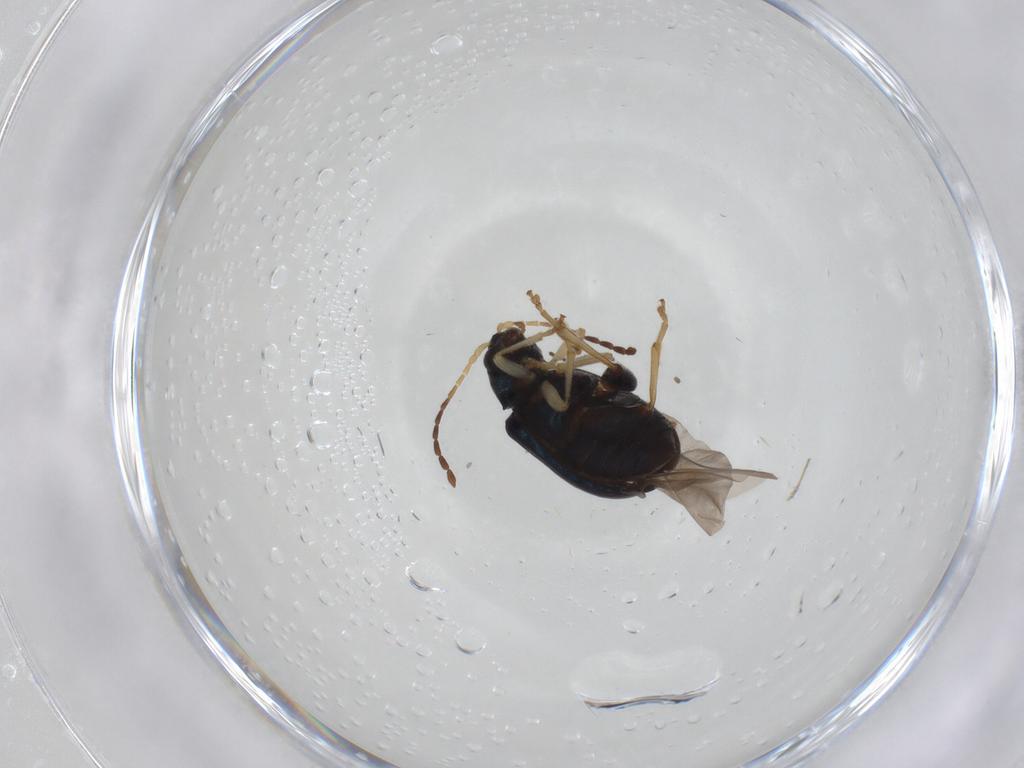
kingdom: Animalia
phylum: Arthropoda
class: Insecta
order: Coleoptera
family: Chrysomelidae
